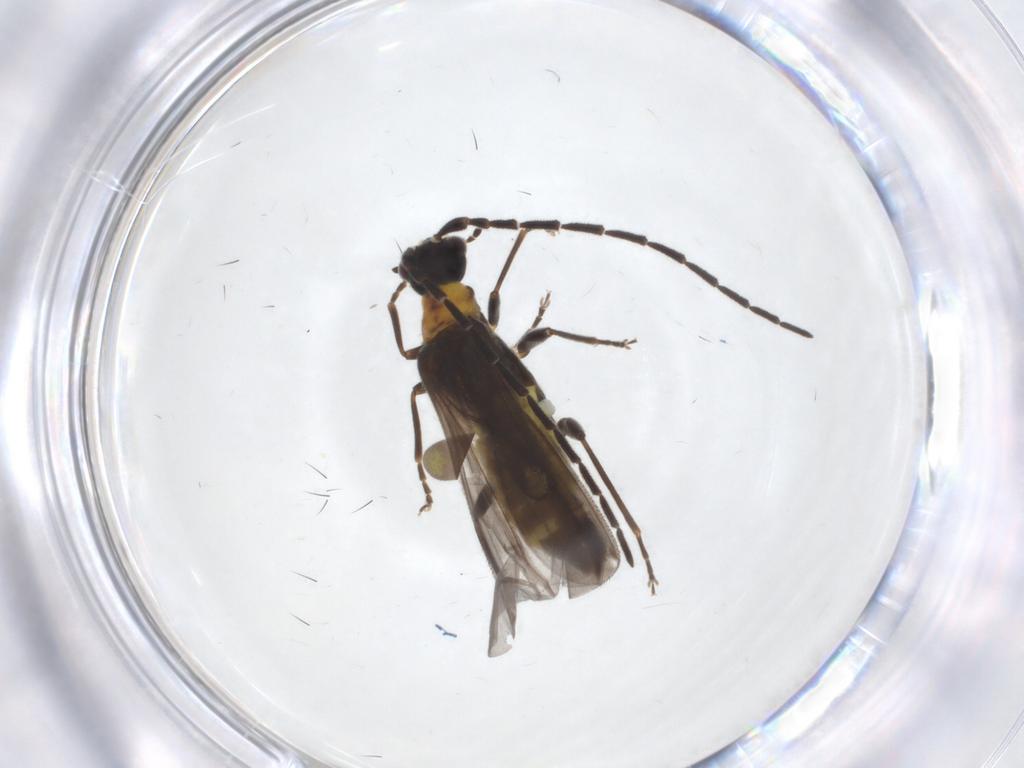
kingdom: Animalia
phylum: Arthropoda
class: Insecta
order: Coleoptera
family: Cantharidae
